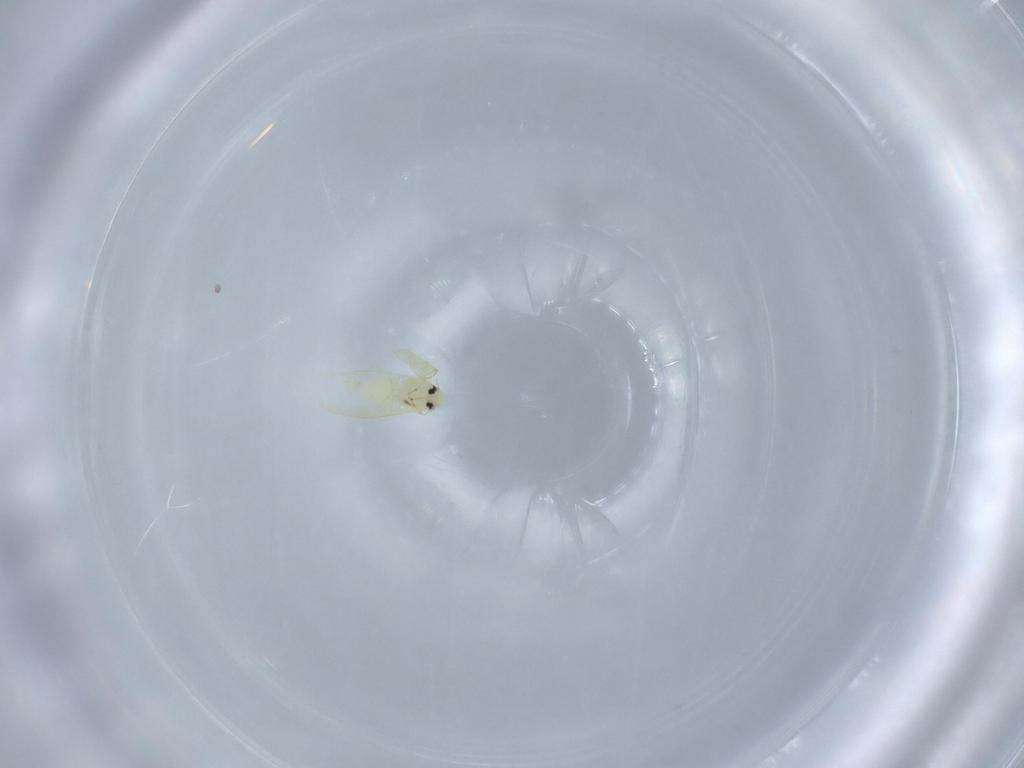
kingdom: Animalia
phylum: Arthropoda
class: Insecta
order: Hemiptera
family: Aleyrodidae
